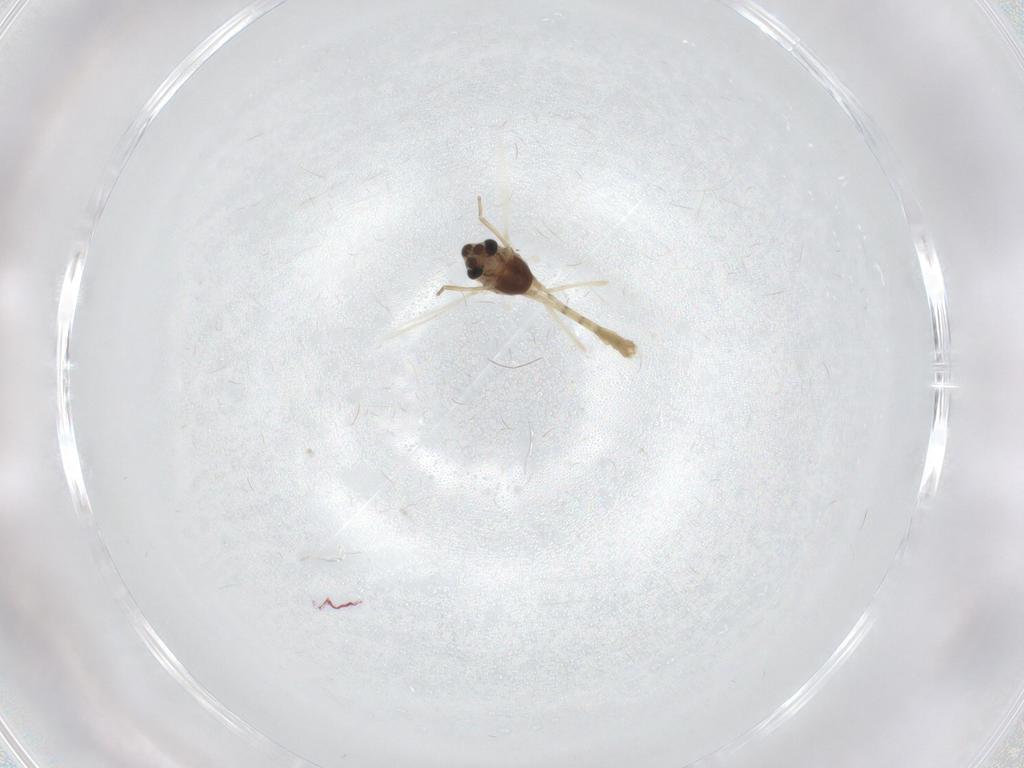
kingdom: Animalia
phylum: Arthropoda
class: Insecta
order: Diptera
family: Chironomidae
